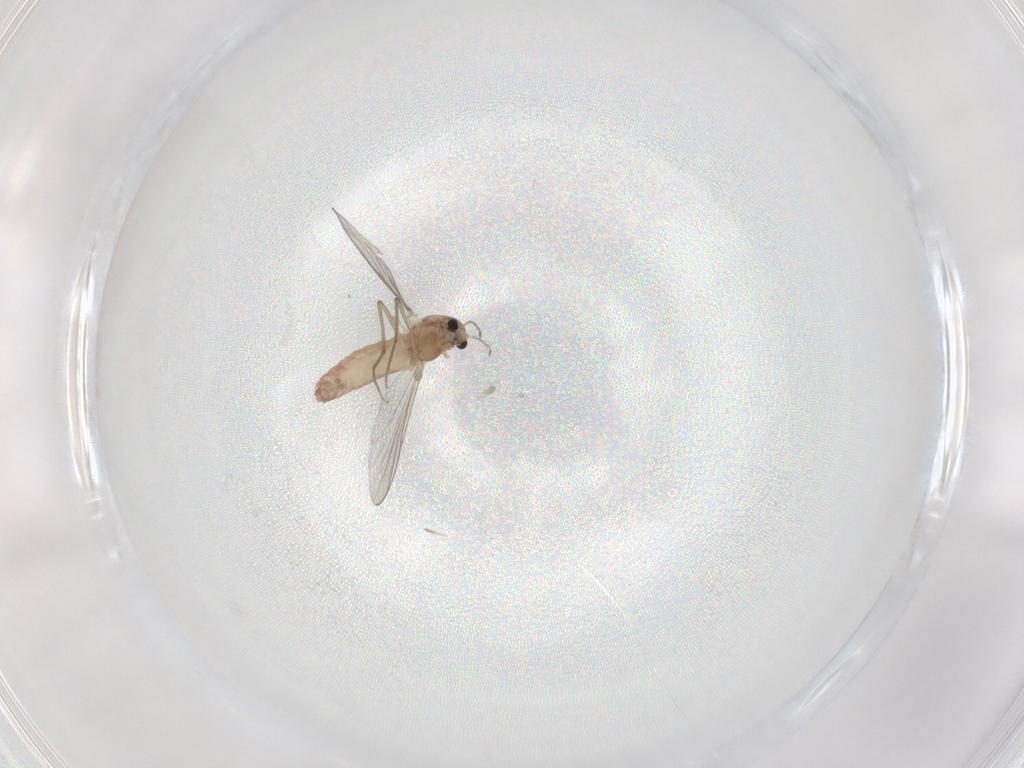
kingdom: Animalia
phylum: Arthropoda
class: Insecta
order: Diptera
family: Chironomidae
